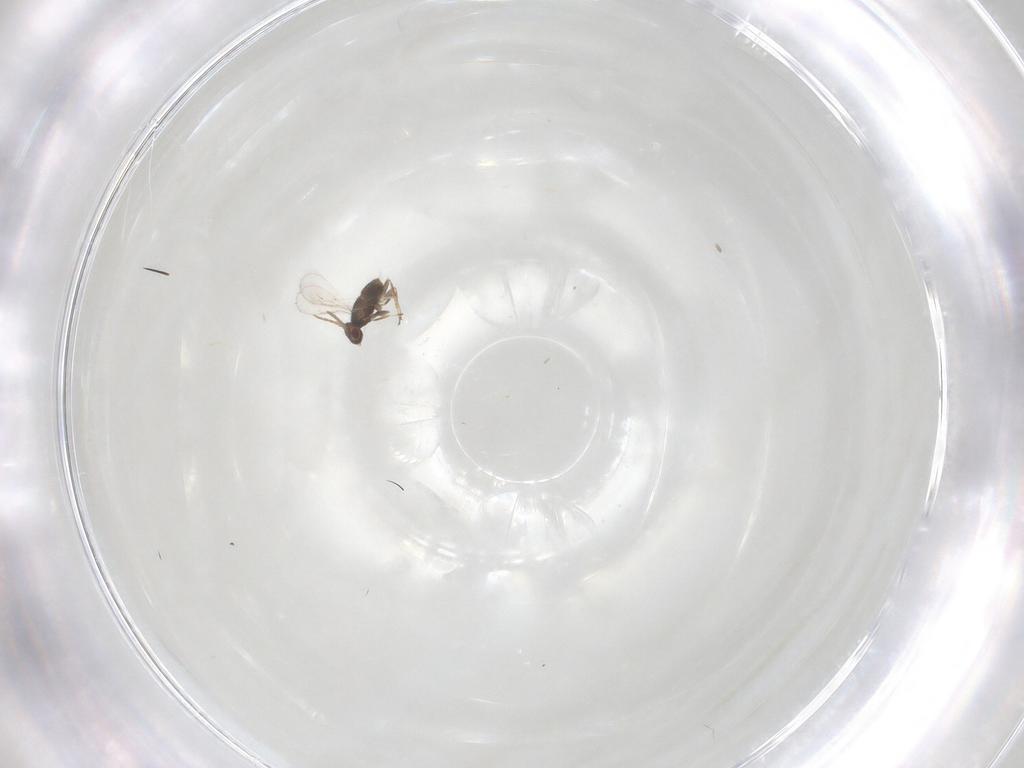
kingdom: Animalia
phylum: Arthropoda
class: Insecta
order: Hymenoptera
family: Aphelinidae
